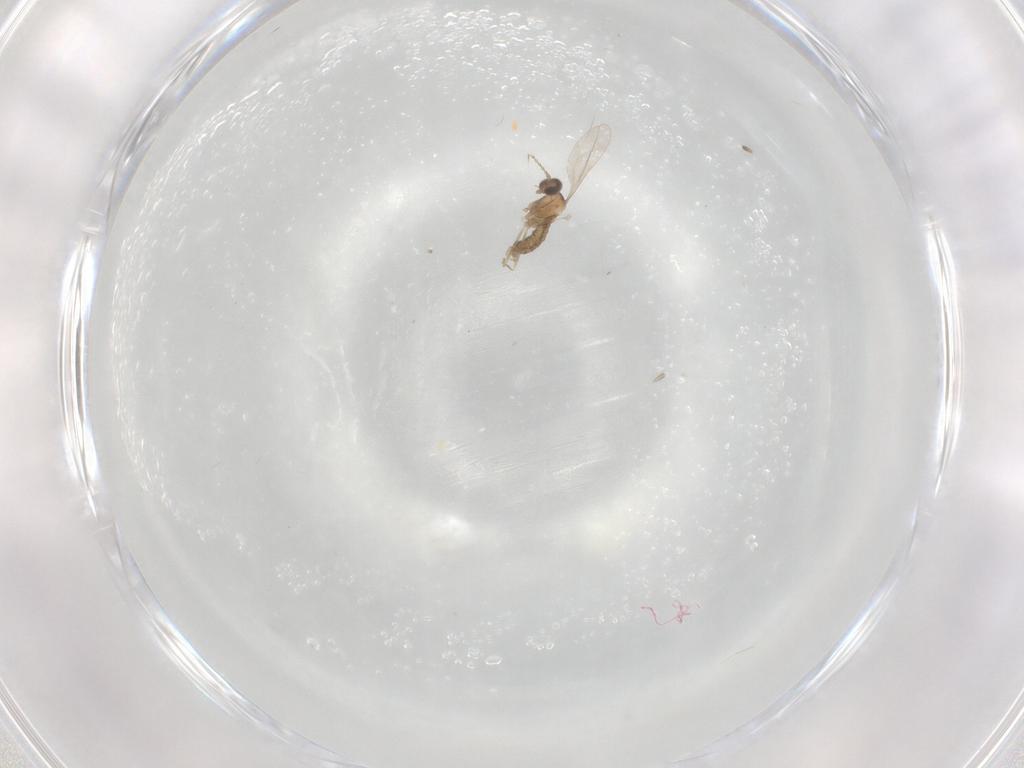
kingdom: Animalia
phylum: Arthropoda
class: Insecta
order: Diptera
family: Cecidomyiidae
